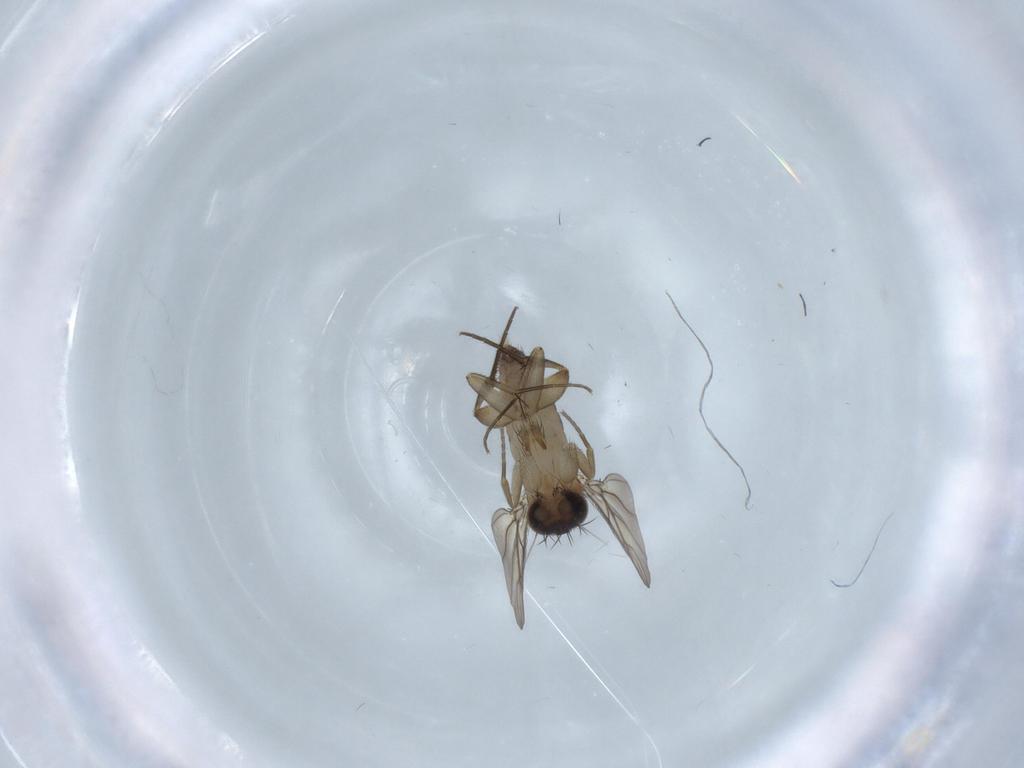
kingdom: Animalia
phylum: Arthropoda
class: Insecta
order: Diptera
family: Phoridae
